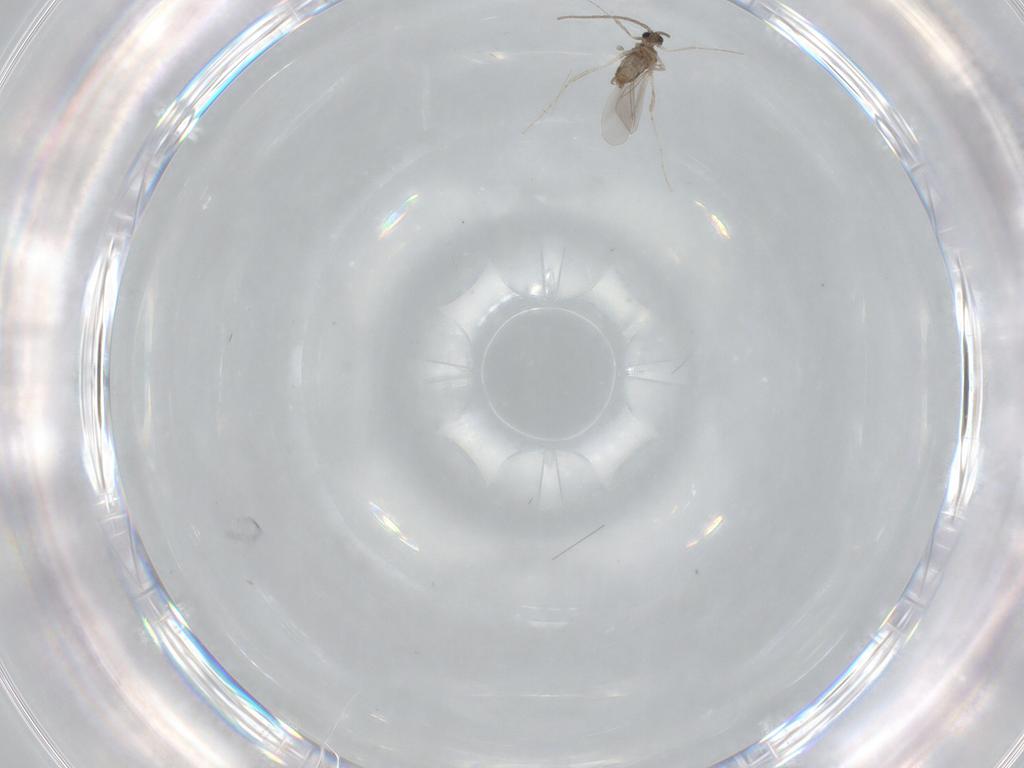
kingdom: Animalia
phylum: Arthropoda
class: Insecta
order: Diptera
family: Cecidomyiidae
